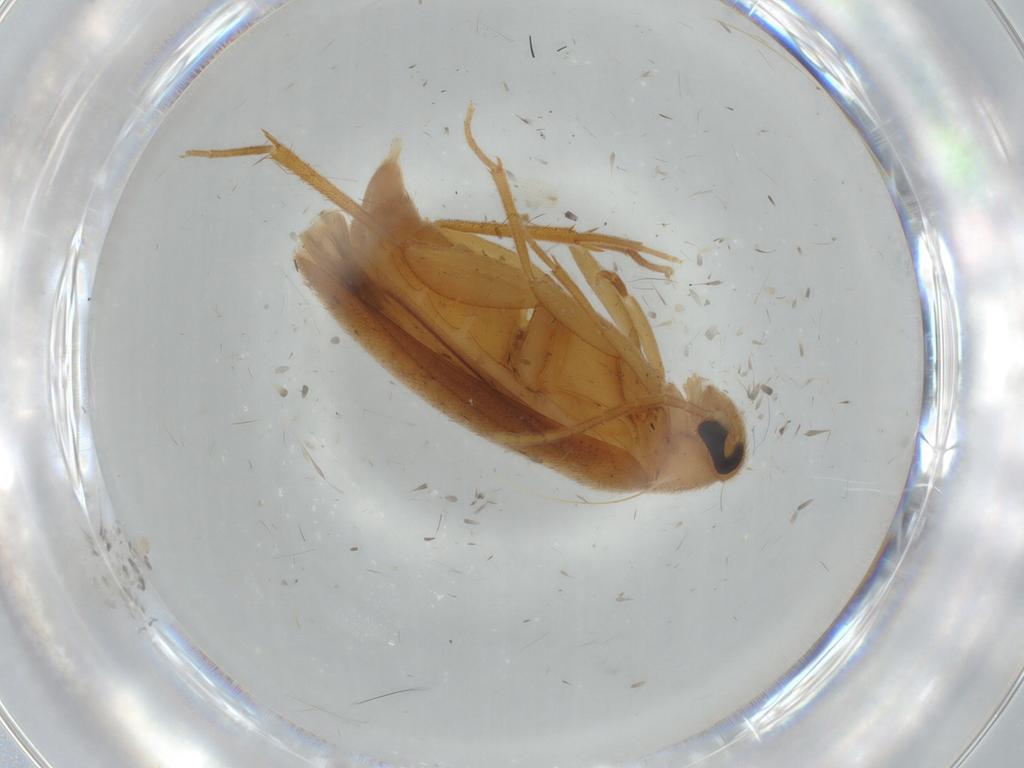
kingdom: Animalia
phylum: Arthropoda
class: Insecta
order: Coleoptera
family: Scraptiidae
